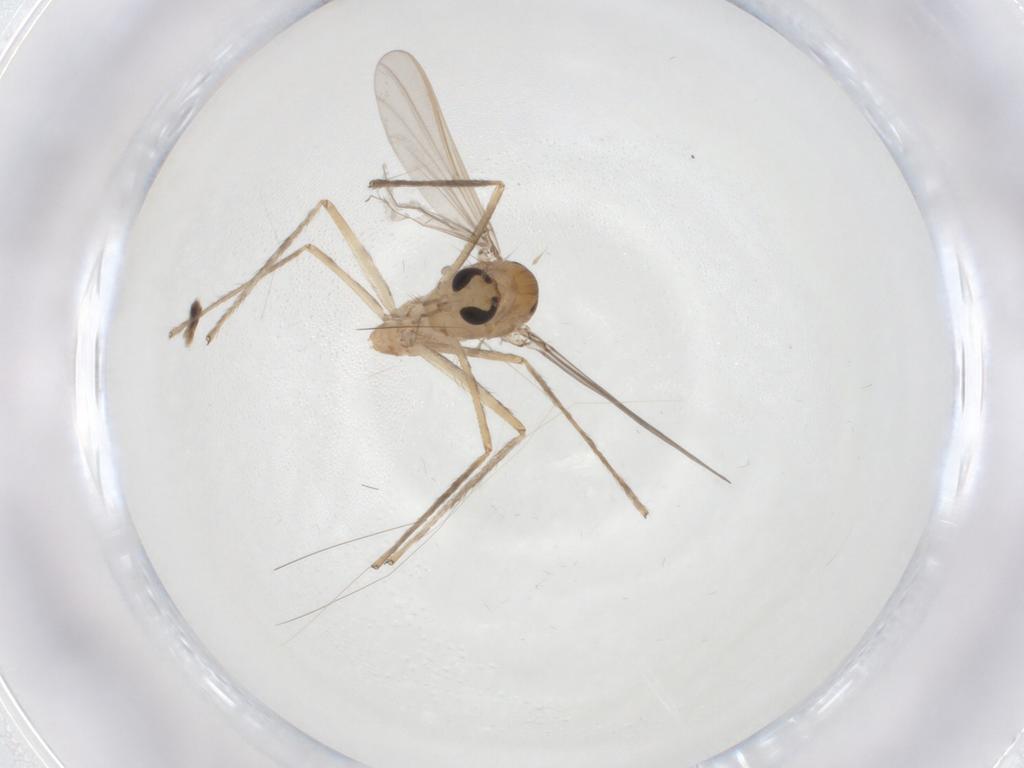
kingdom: Animalia
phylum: Arthropoda
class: Insecta
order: Diptera
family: Chironomidae
